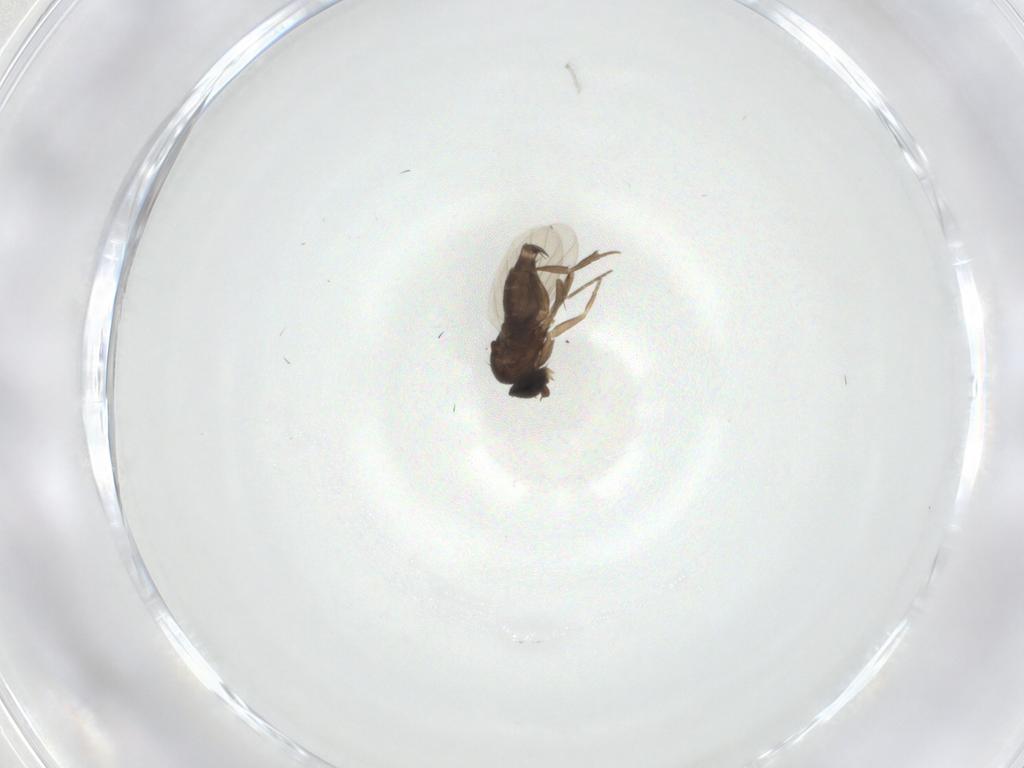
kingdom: Animalia
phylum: Arthropoda
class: Insecta
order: Diptera
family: Phoridae
